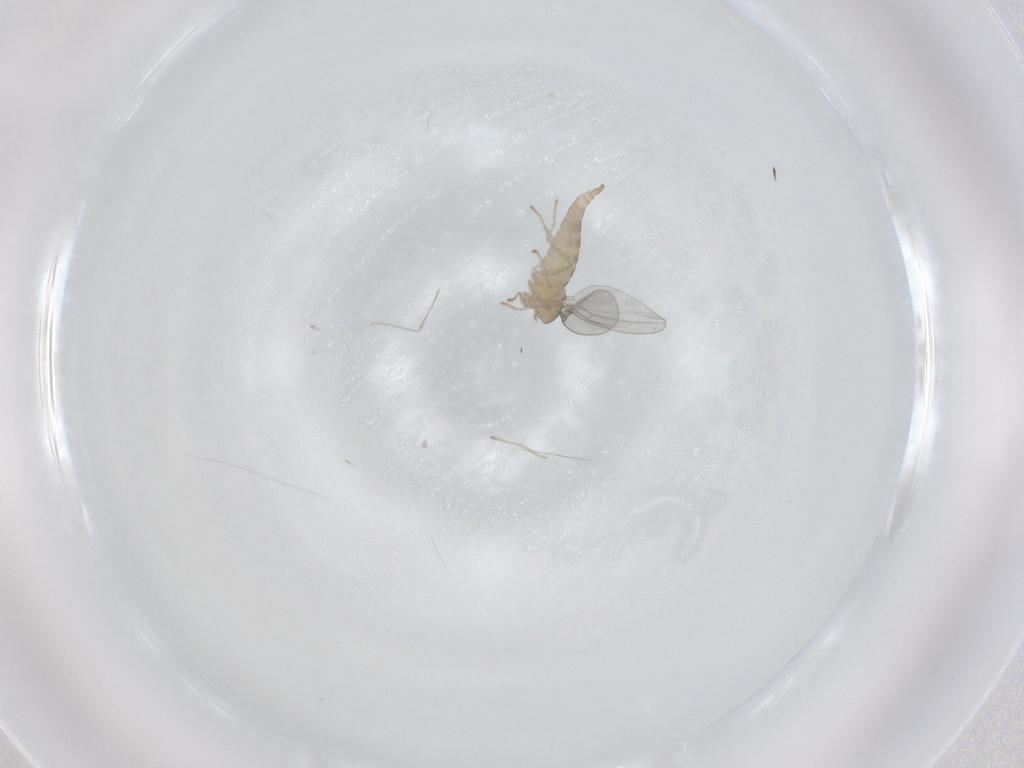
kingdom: Animalia
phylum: Arthropoda
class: Insecta
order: Diptera
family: Cecidomyiidae
